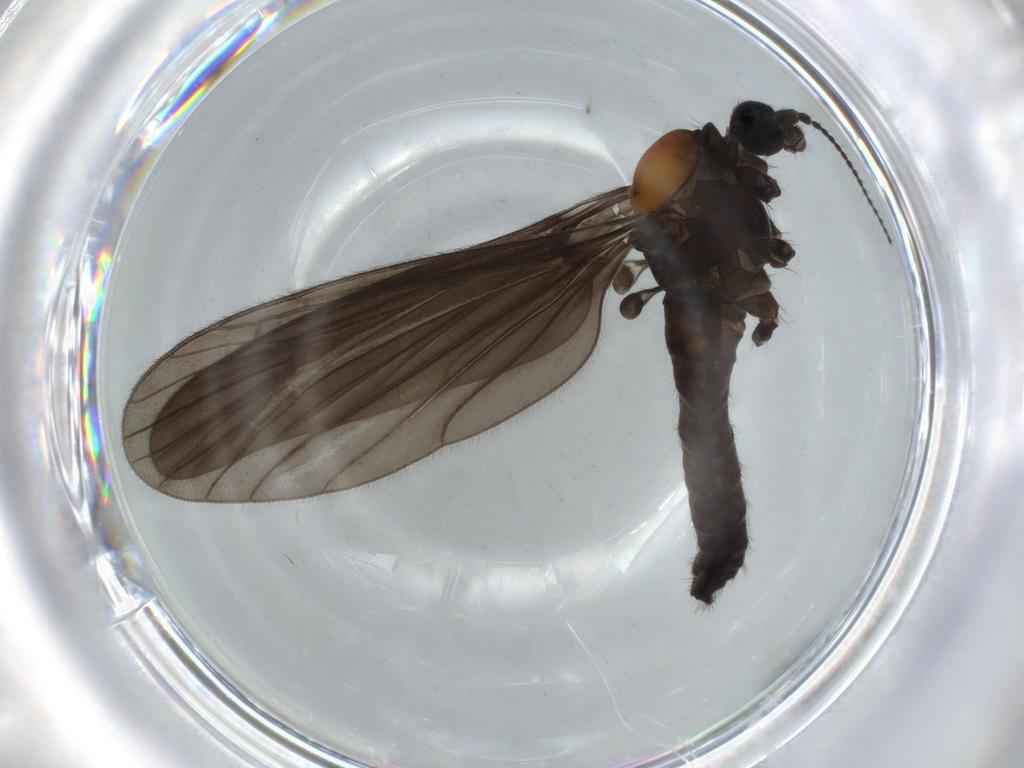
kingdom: Animalia
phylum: Arthropoda
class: Insecta
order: Diptera
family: Limoniidae
